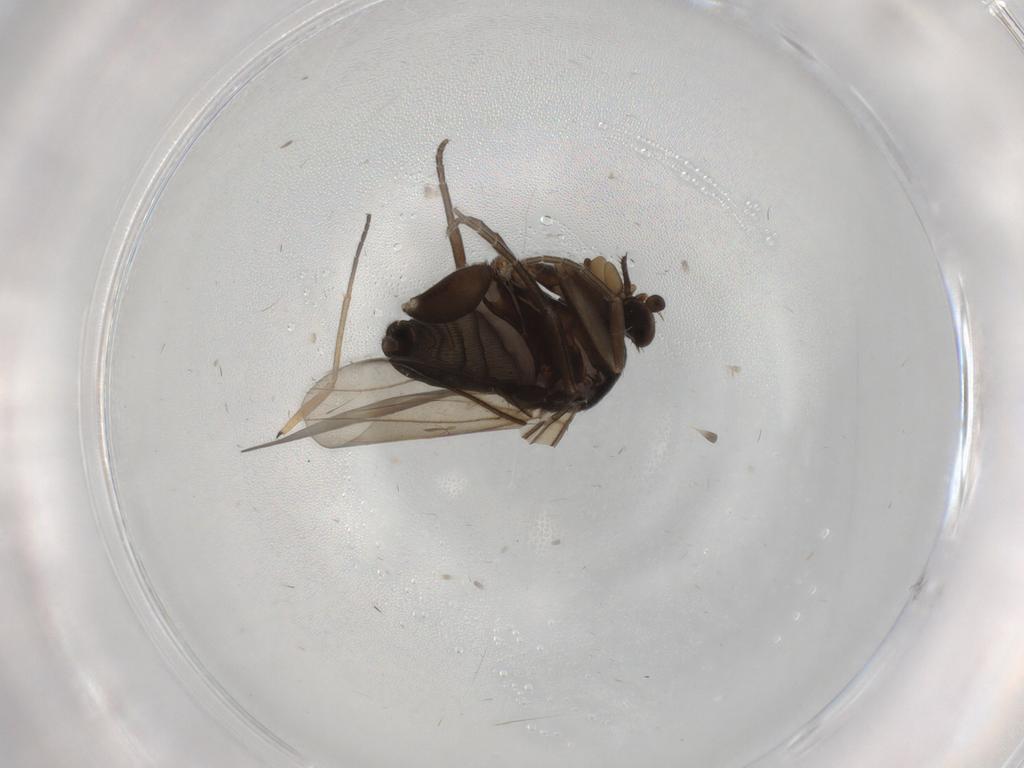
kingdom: Animalia
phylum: Arthropoda
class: Insecta
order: Diptera
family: Phoridae
